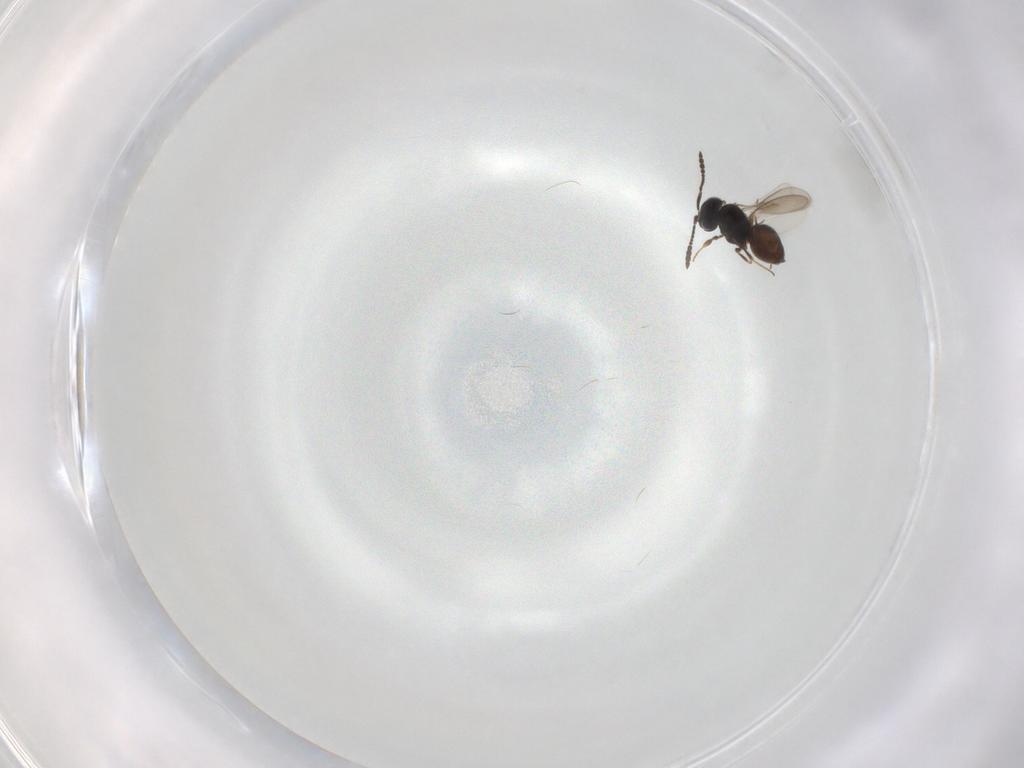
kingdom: Animalia
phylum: Arthropoda
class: Insecta
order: Hymenoptera
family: Scelionidae
